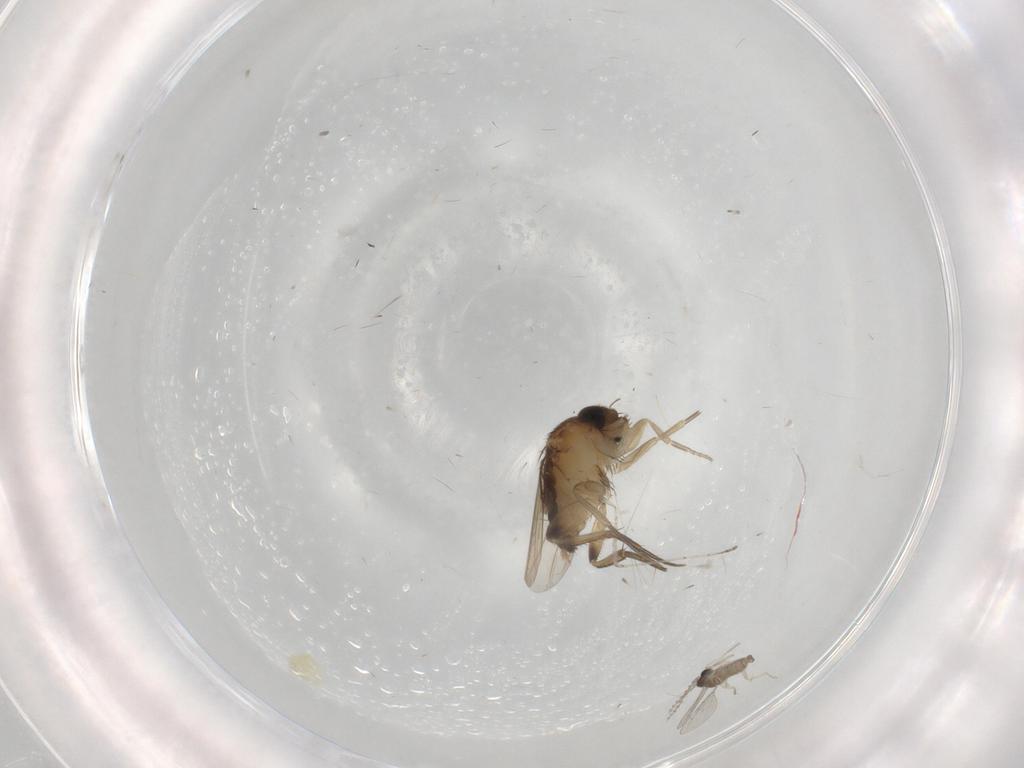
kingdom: Animalia
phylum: Arthropoda
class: Insecta
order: Diptera
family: Phoridae
